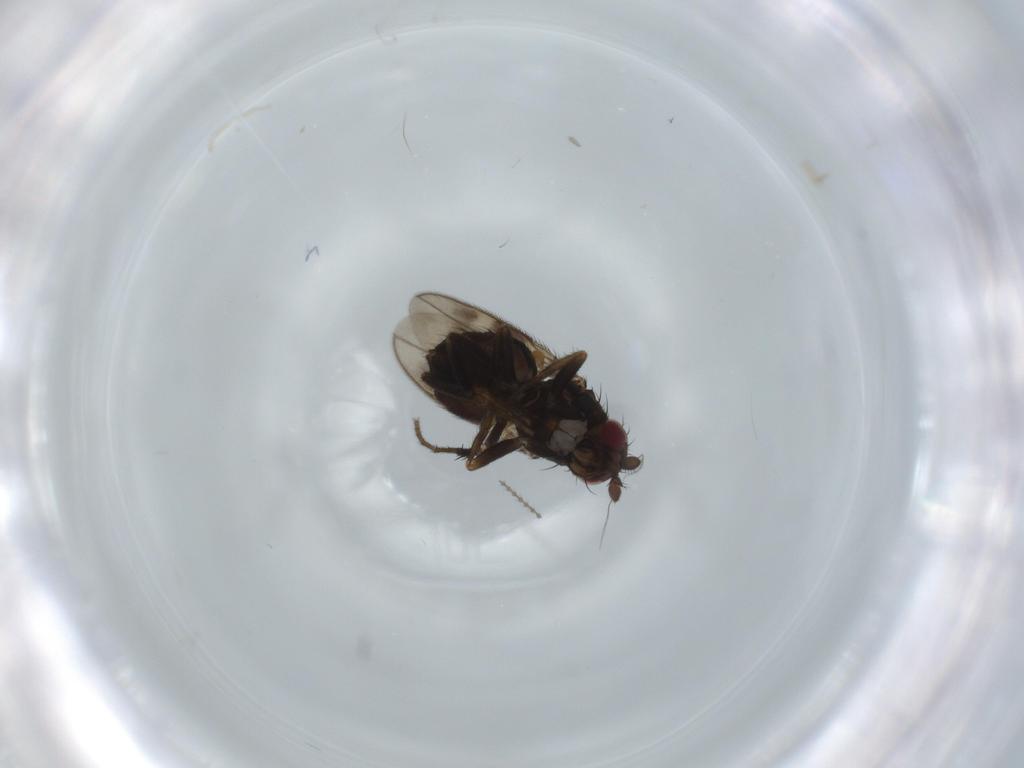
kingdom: Animalia
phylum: Arthropoda
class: Insecta
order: Diptera
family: Sphaeroceridae
